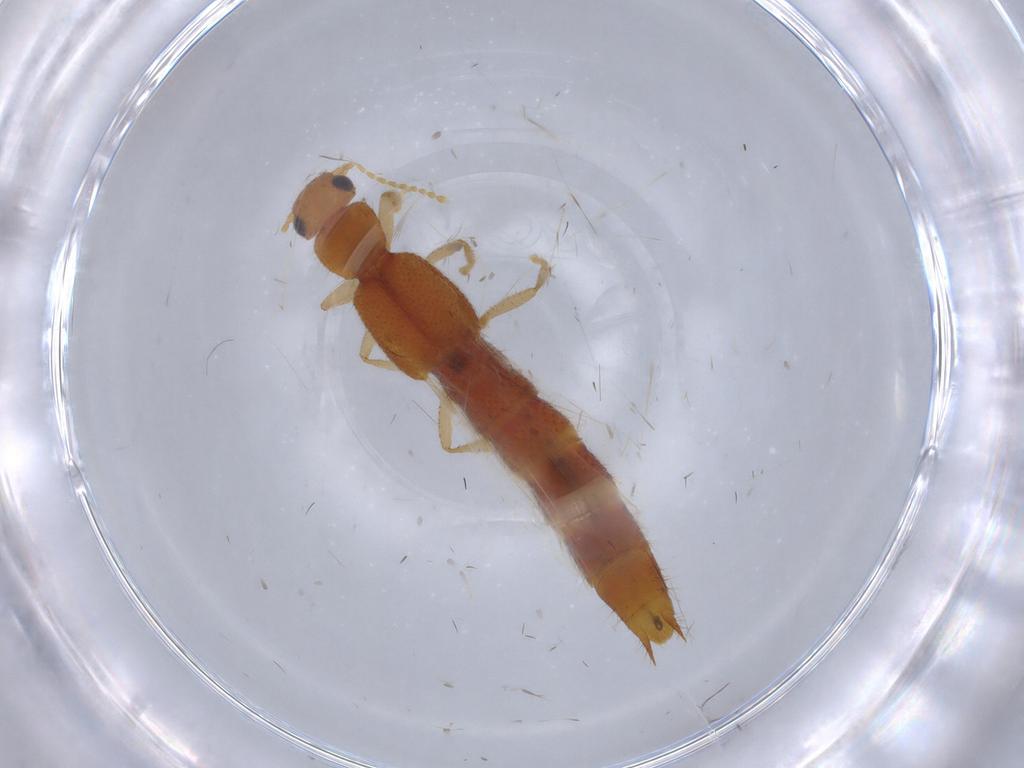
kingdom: Animalia
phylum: Arthropoda
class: Insecta
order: Coleoptera
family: Staphylinidae
